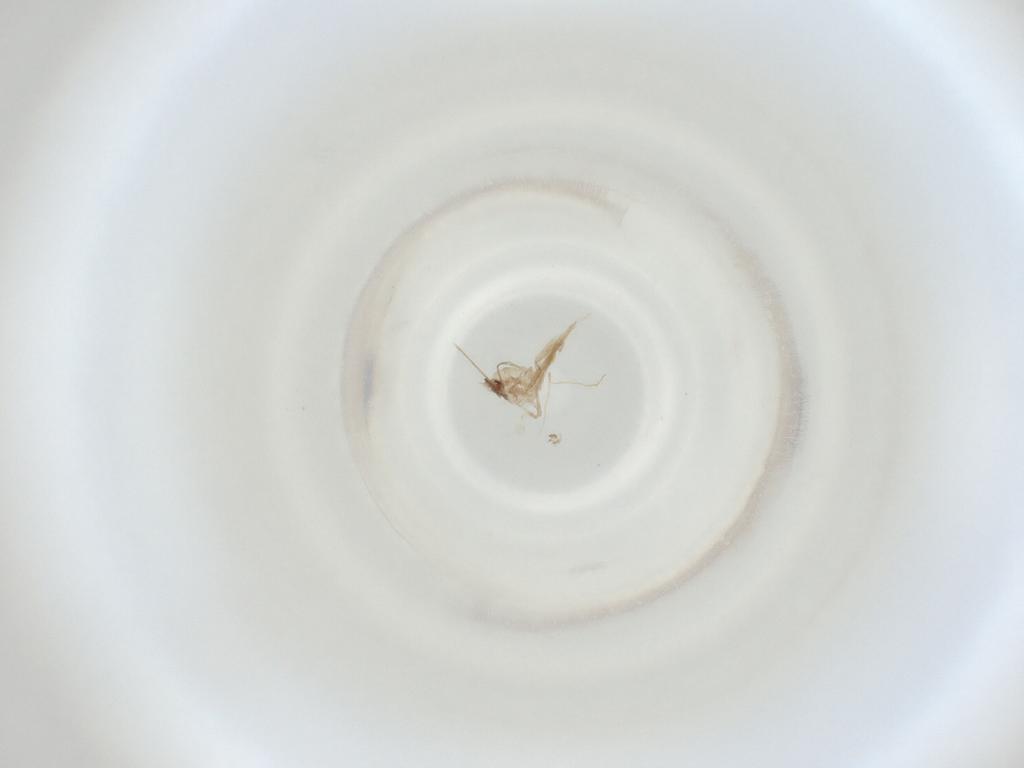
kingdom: Animalia
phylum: Arthropoda
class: Insecta
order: Diptera
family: Cecidomyiidae
